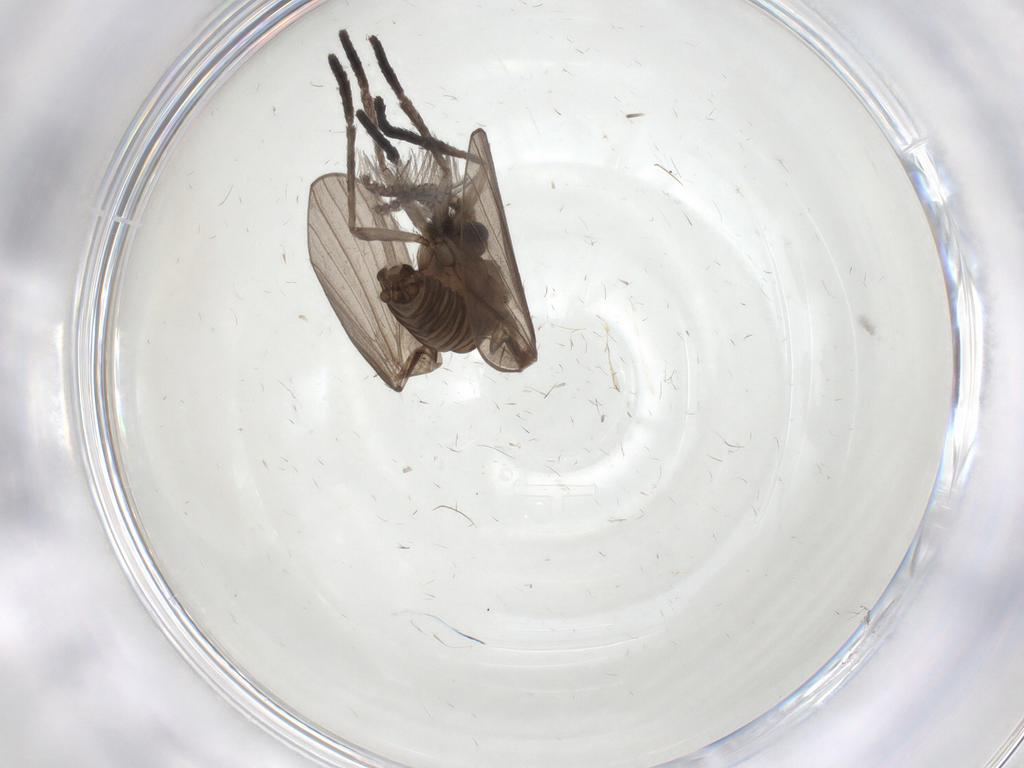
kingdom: Animalia
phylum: Arthropoda
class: Insecta
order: Diptera
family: Psychodidae
